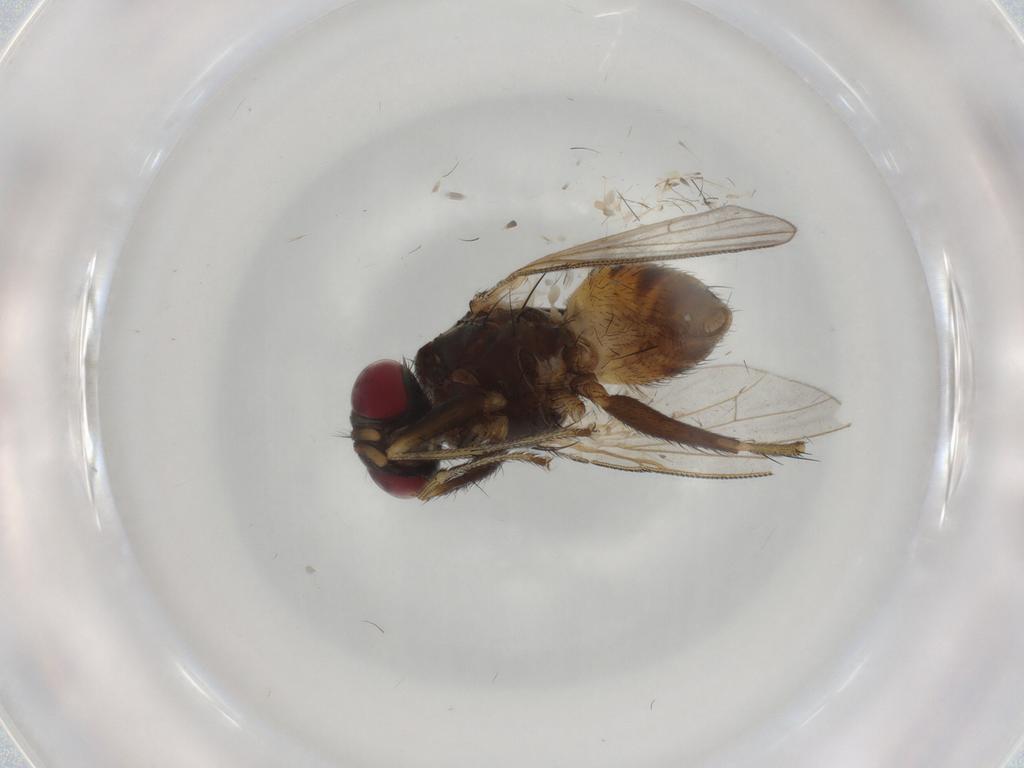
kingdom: Animalia
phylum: Arthropoda
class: Insecta
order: Diptera
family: Muscidae
